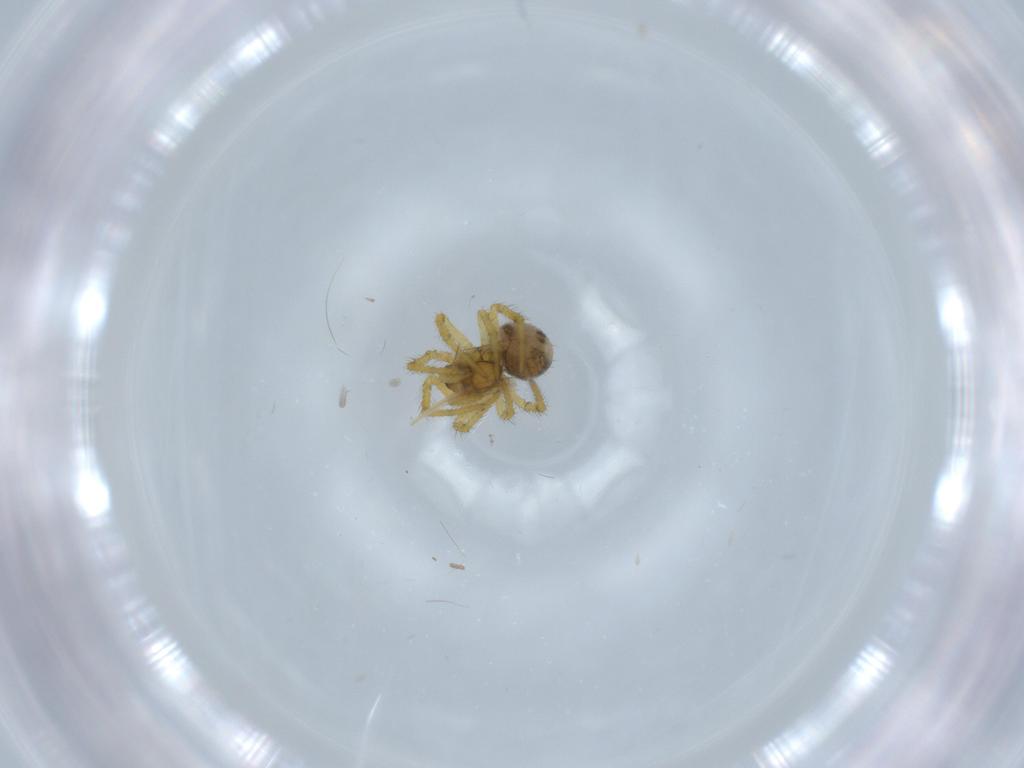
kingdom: Animalia
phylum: Arthropoda
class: Arachnida
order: Araneae
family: Theridiidae
